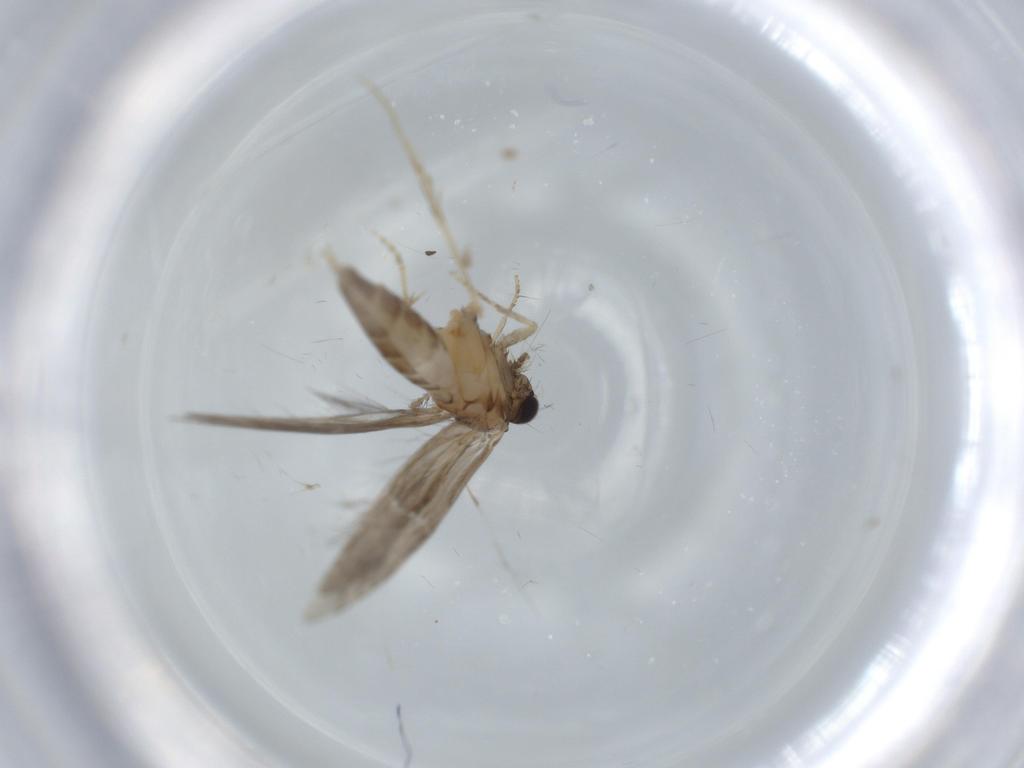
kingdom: Animalia
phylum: Arthropoda
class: Insecta
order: Trichoptera
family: Hydroptilidae
